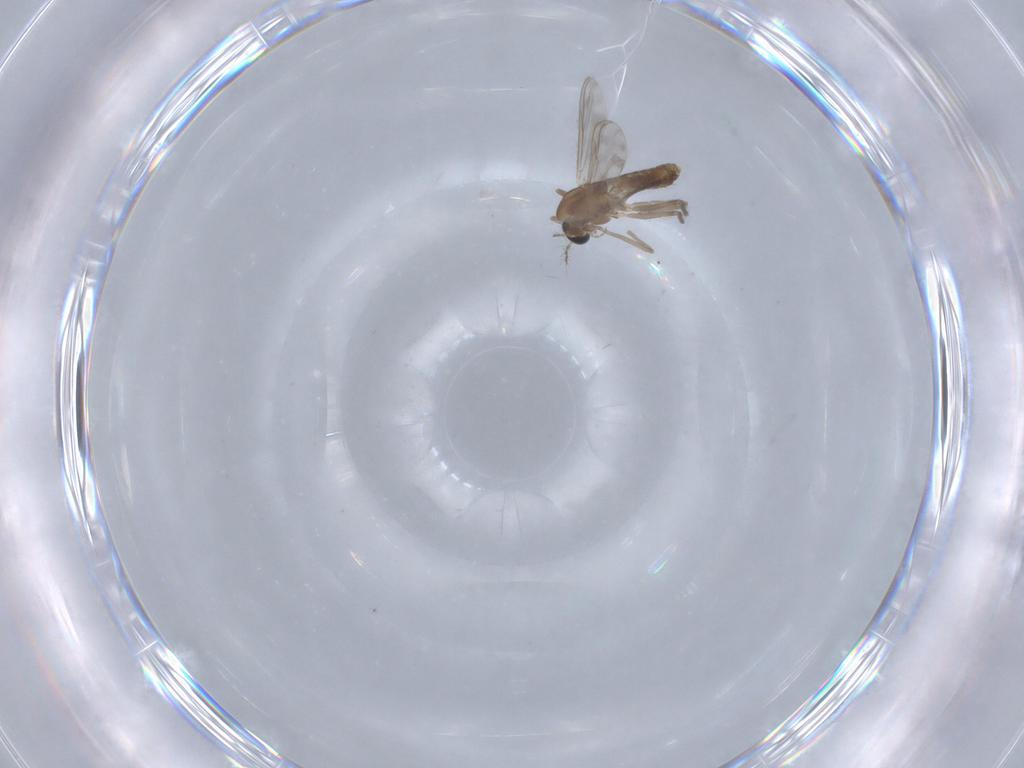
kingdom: Animalia
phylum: Arthropoda
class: Insecta
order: Diptera
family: Chironomidae
